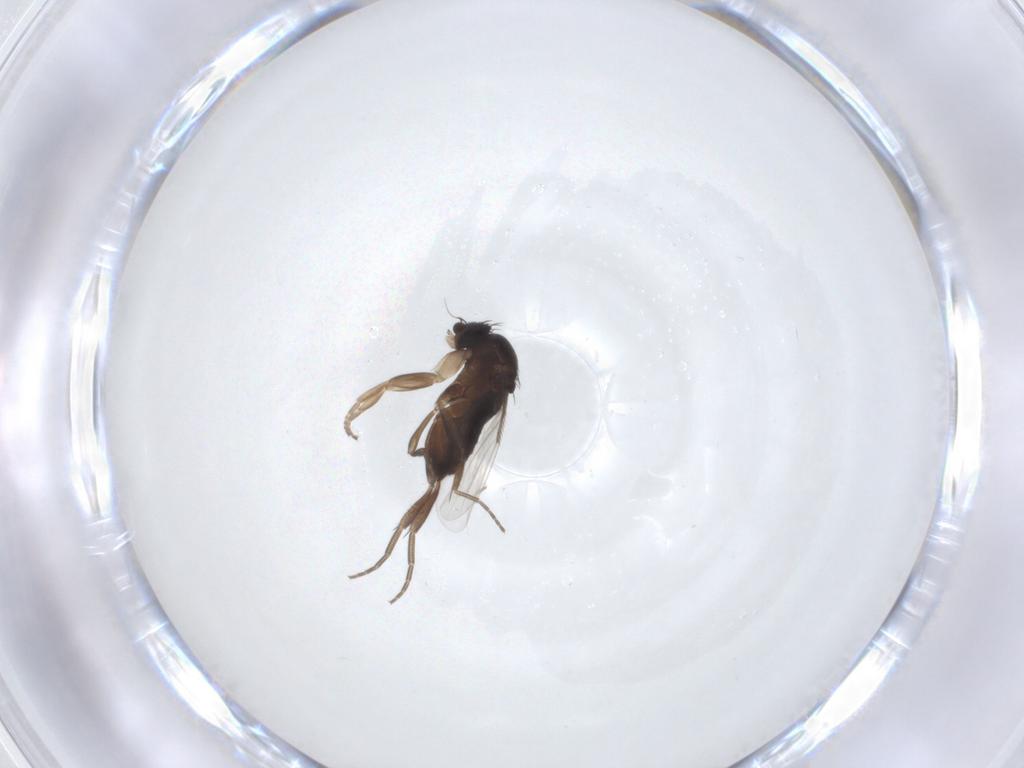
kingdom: Animalia
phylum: Arthropoda
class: Insecta
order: Diptera
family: Phoridae
